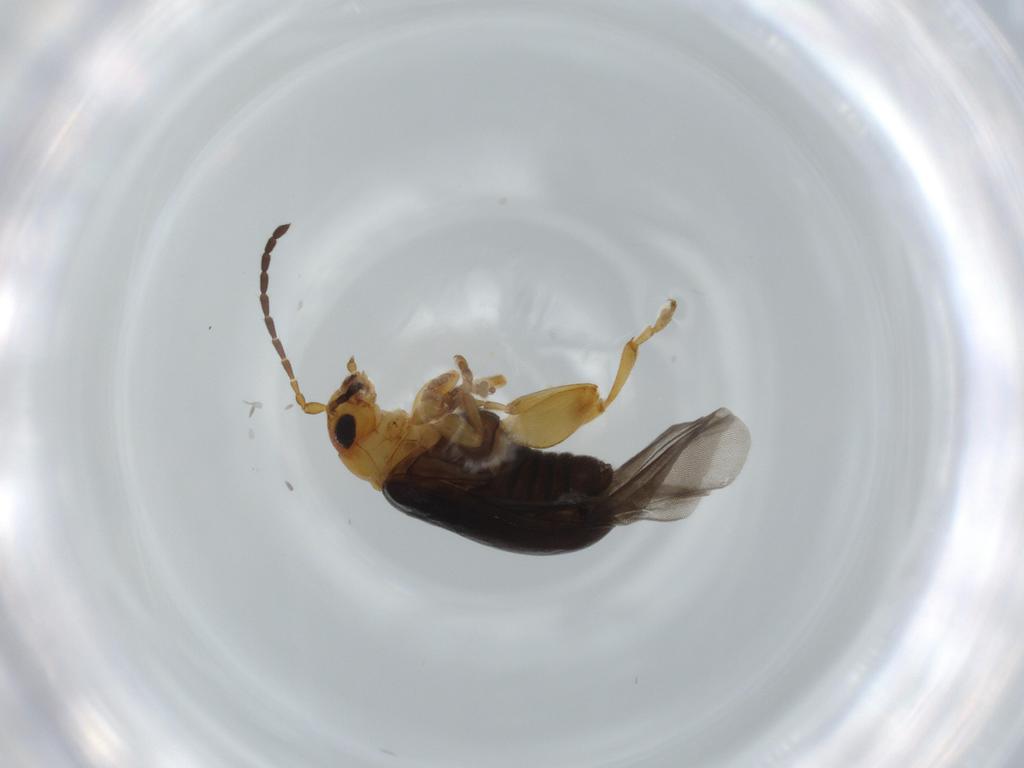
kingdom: Animalia
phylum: Arthropoda
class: Insecta
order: Coleoptera
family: Chrysomelidae
